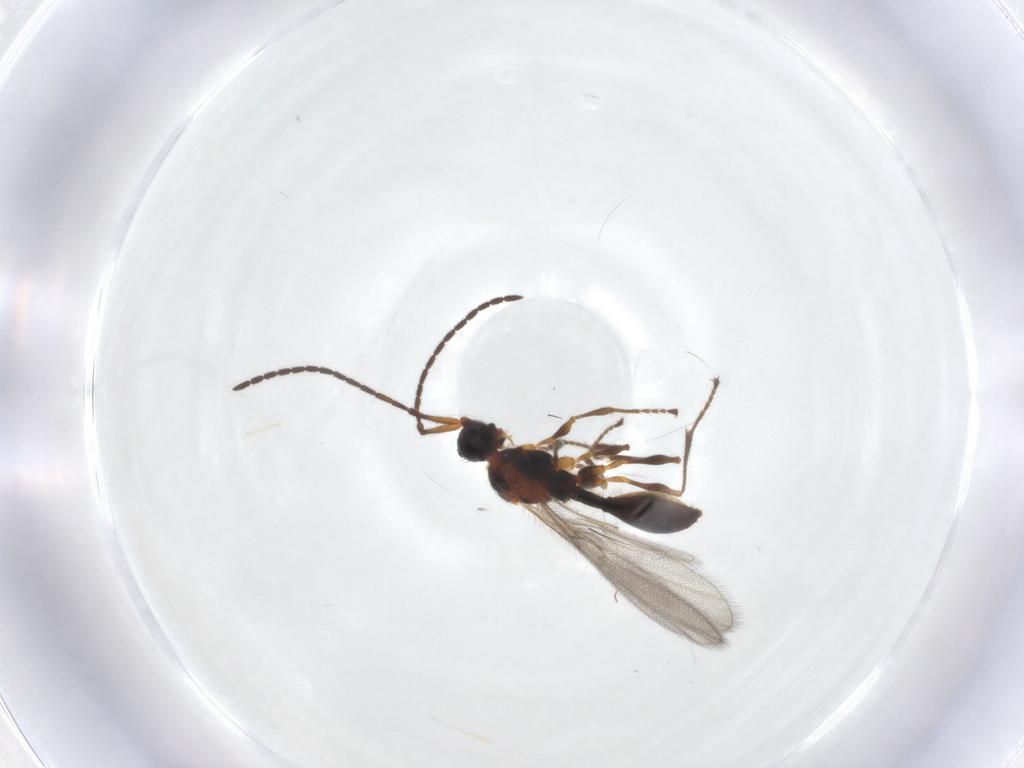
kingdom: Animalia
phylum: Arthropoda
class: Insecta
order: Hymenoptera
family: Diapriidae
